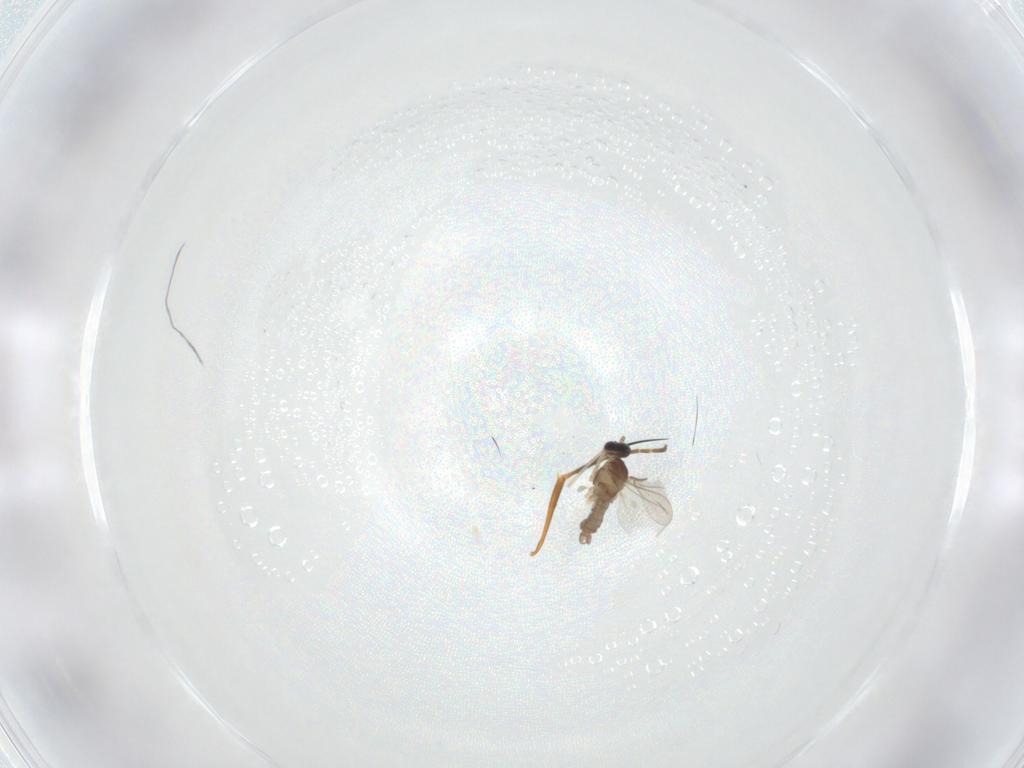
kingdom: Animalia
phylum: Arthropoda
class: Insecta
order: Diptera
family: Cecidomyiidae
